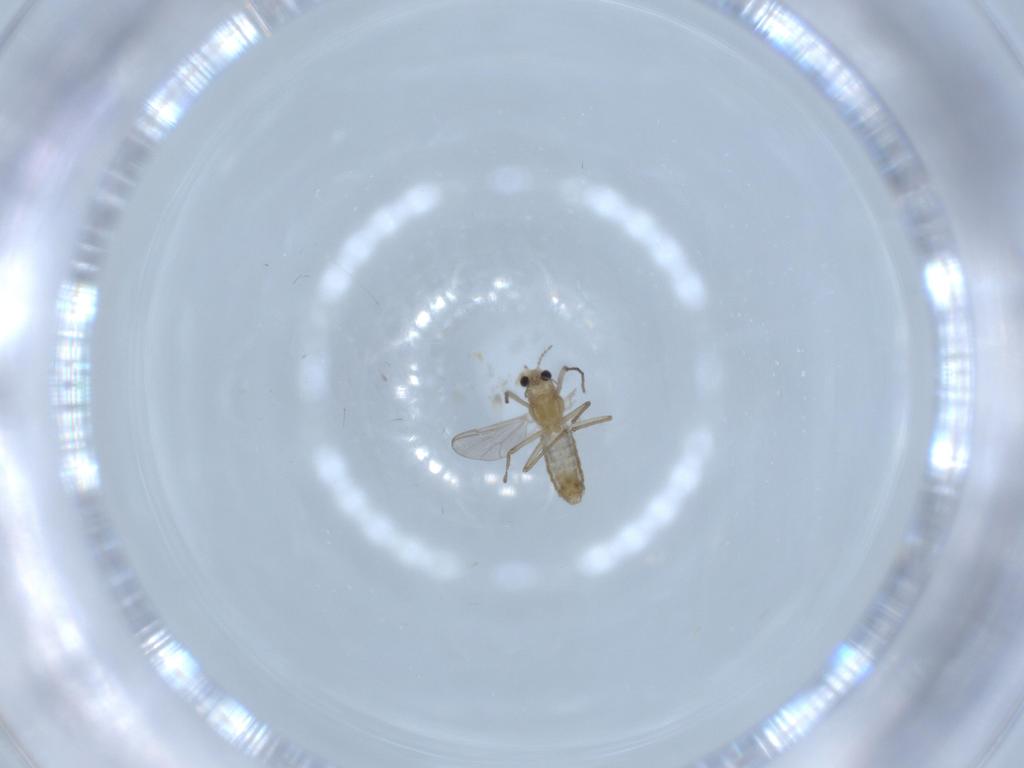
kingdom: Animalia
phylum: Arthropoda
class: Insecta
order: Diptera
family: Chironomidae
